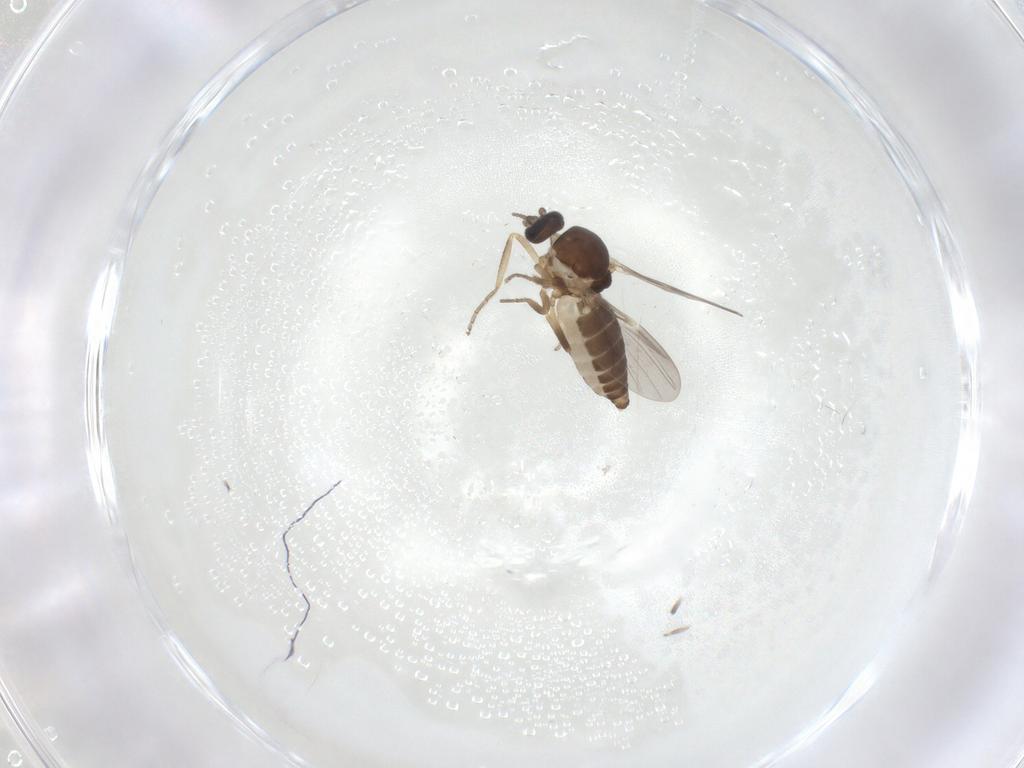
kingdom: Animalia
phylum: Arthropoda
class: Insecta
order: Diptera
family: Ceratopogonidae
